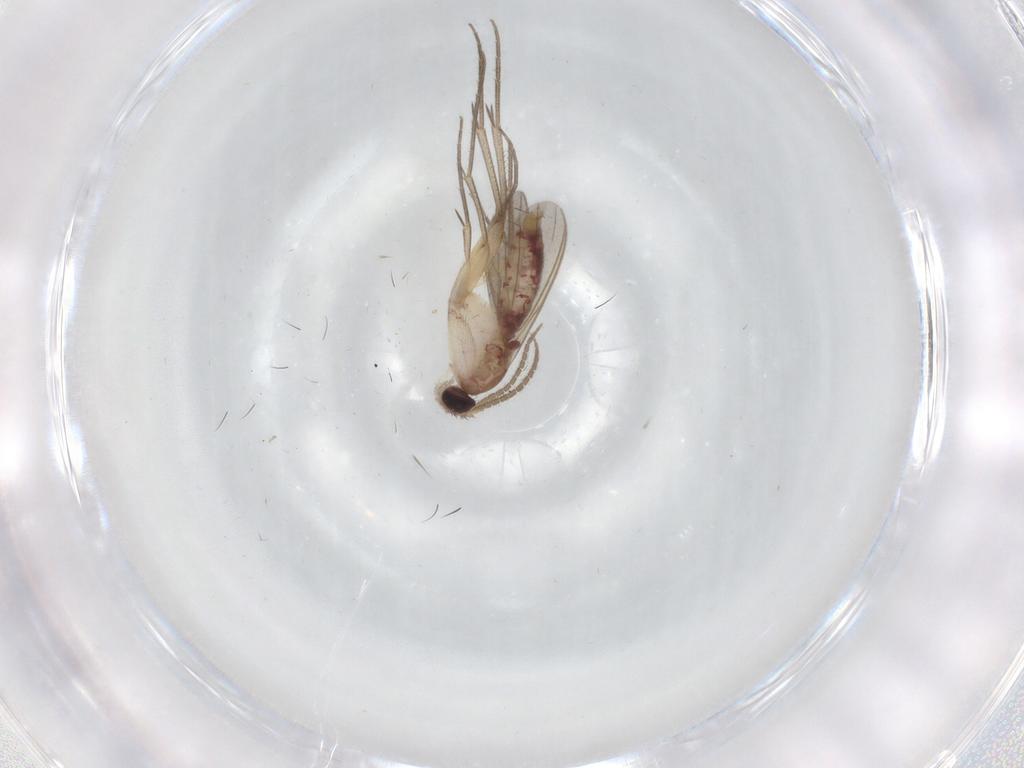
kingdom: Animalia
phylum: Arthropoda
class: Insecta
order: Diptera
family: Mycetophilidae
